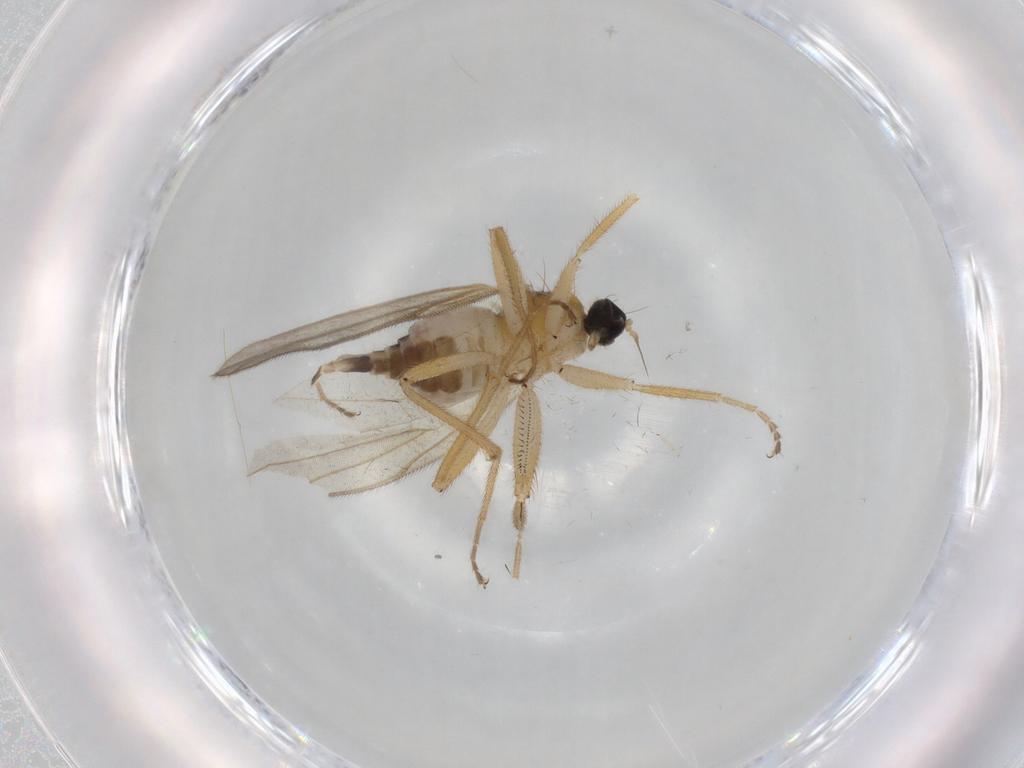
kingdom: Animalia
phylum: Arthropoda
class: Insecta
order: Diptera
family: Hybotidae
